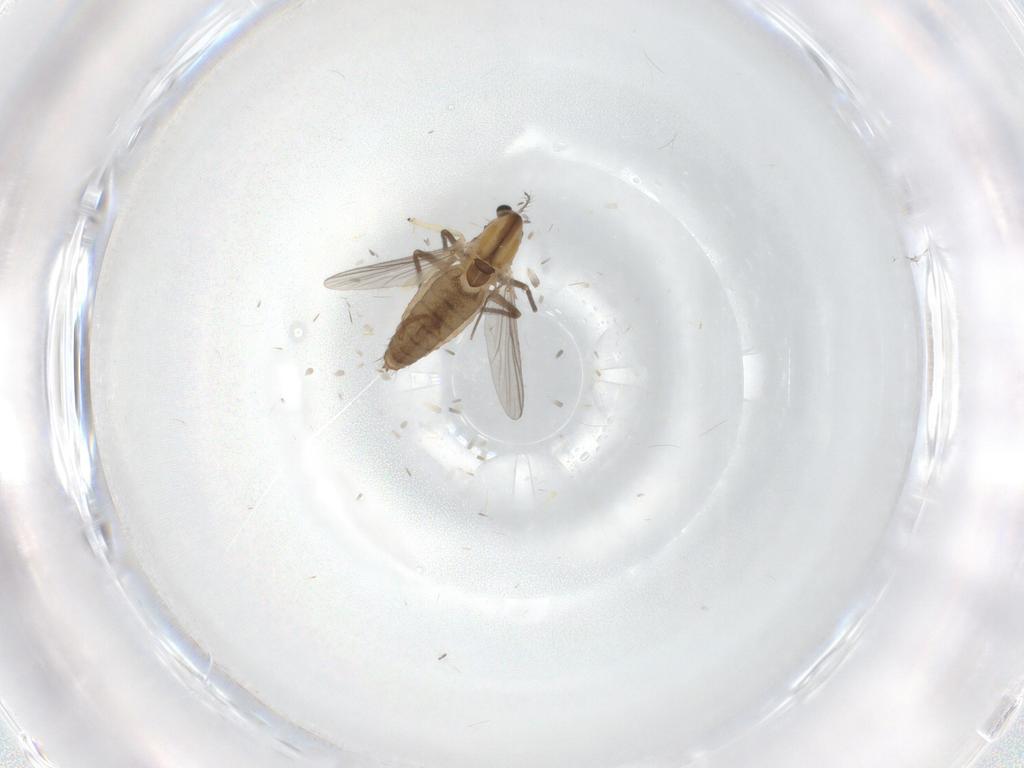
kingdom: Animalia
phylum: Arthropoda
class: Insecta
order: Diptera
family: Chironomidae
